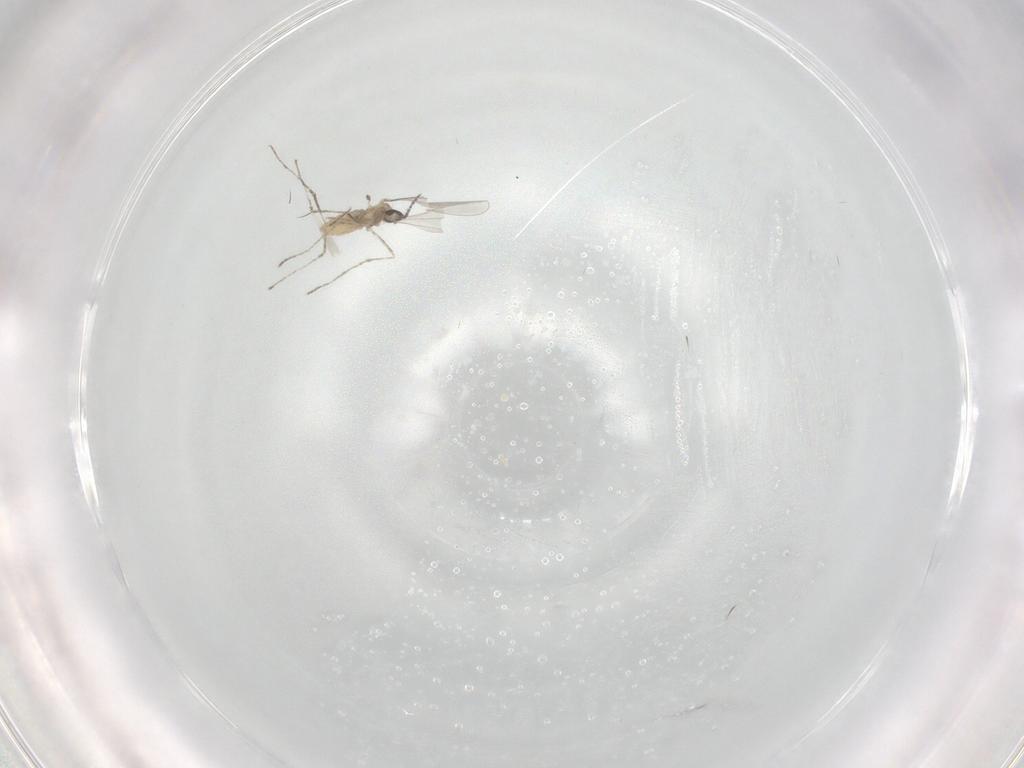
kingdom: Animalia
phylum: Arthropoda
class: Insecta
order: Diptera
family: Cecidomyiidae
